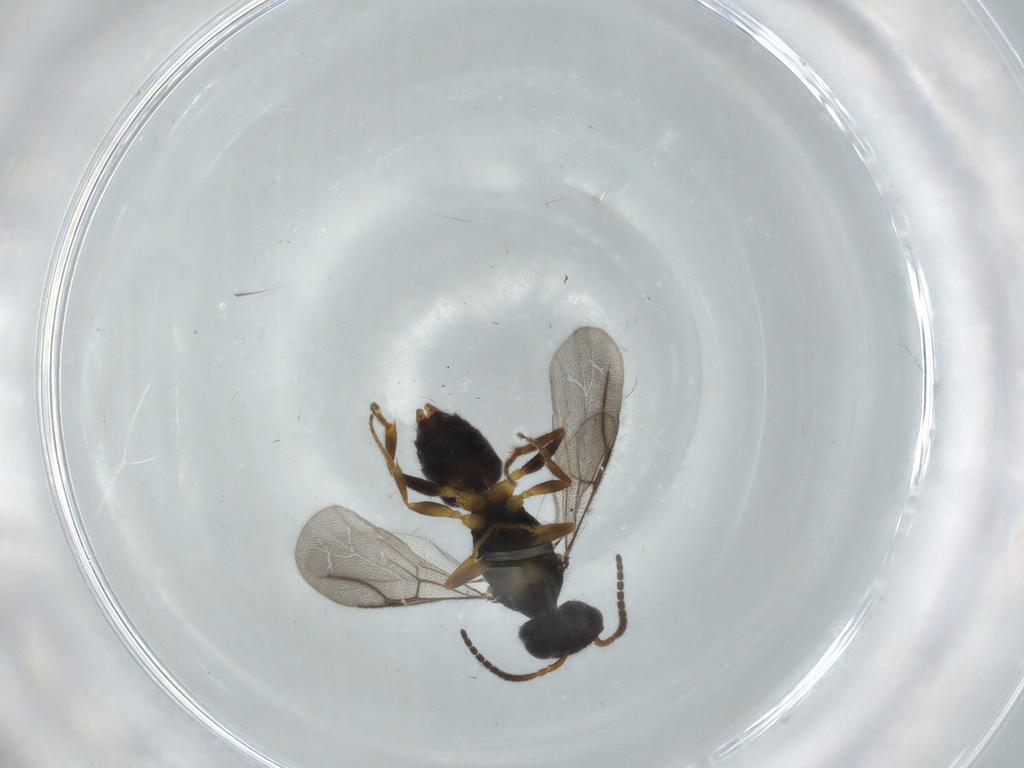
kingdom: Animalia
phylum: Arthropoda
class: Insecta
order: Hymenoptera
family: Bethylidae
